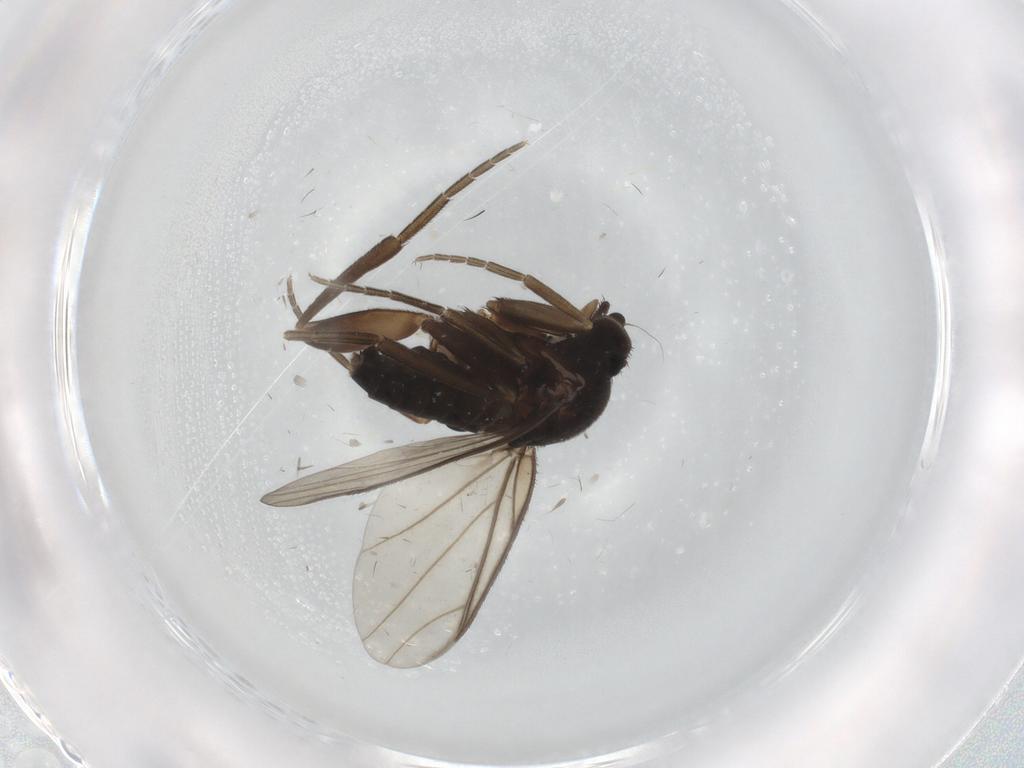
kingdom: Animalia
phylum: Arthropoda
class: Insecta
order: Diptera
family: Phoridae
